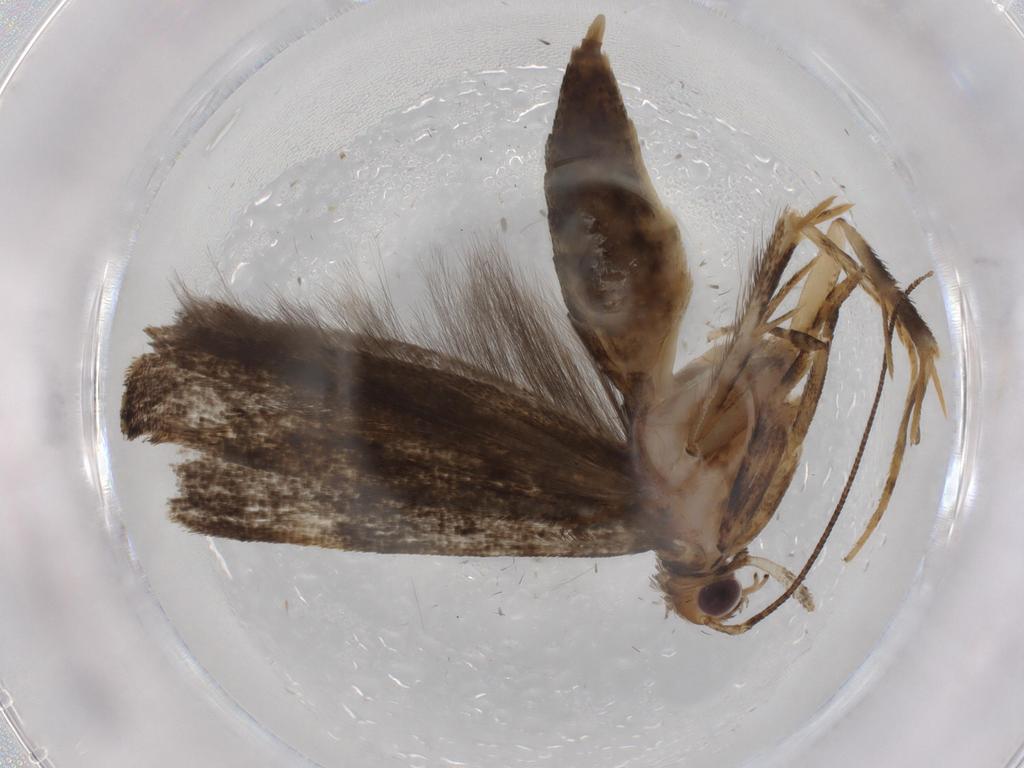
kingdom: Animalia
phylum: Arthropoda
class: Insecta
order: Lepidoptera
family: Gelechiidae
